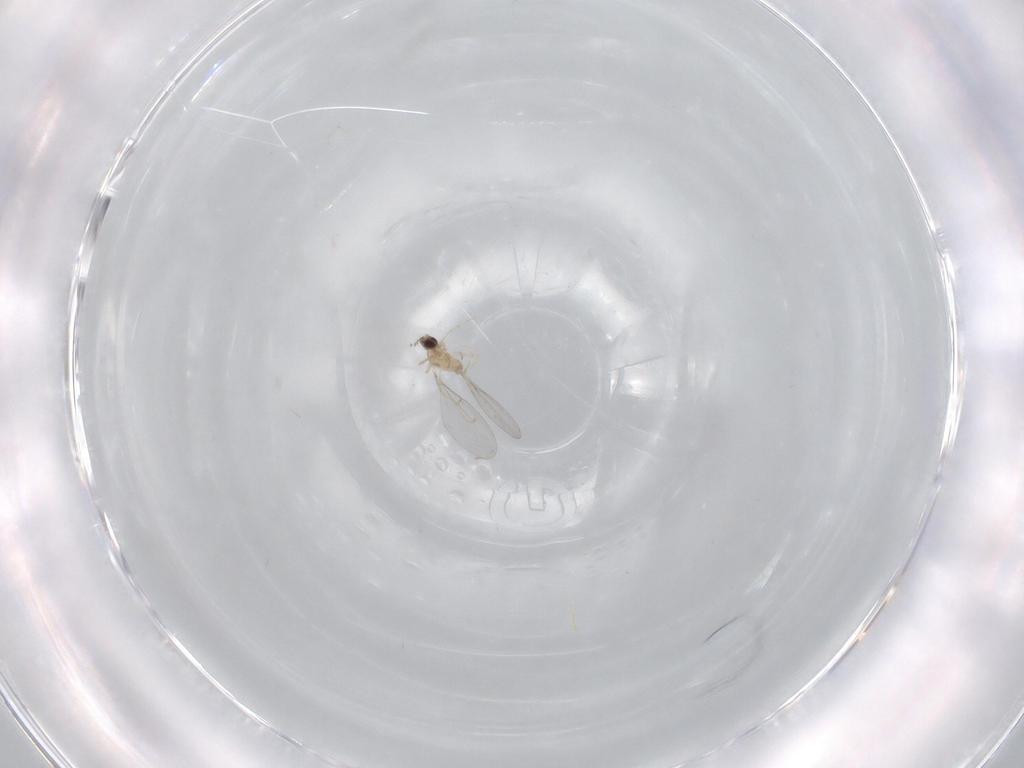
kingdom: Animalia
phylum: Arthropoda
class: Insecta
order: Diptera
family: Cecidomyiidae
